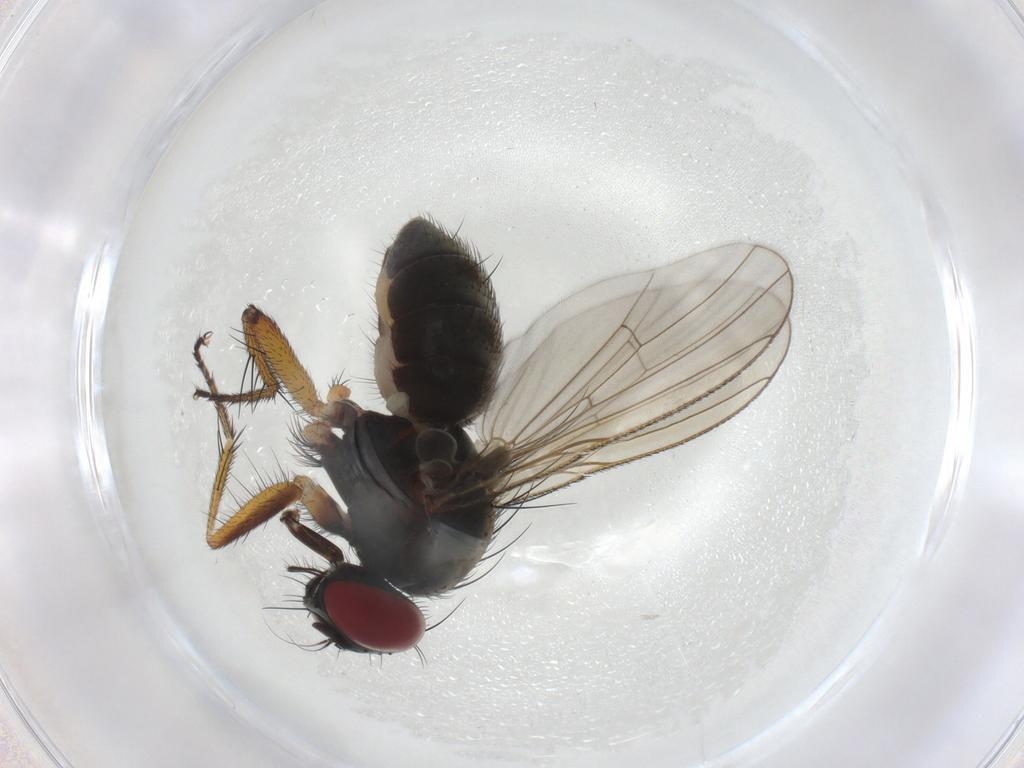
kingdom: Animalia
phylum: Arthropoda
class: Insecta
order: Diptera
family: Muscidae
